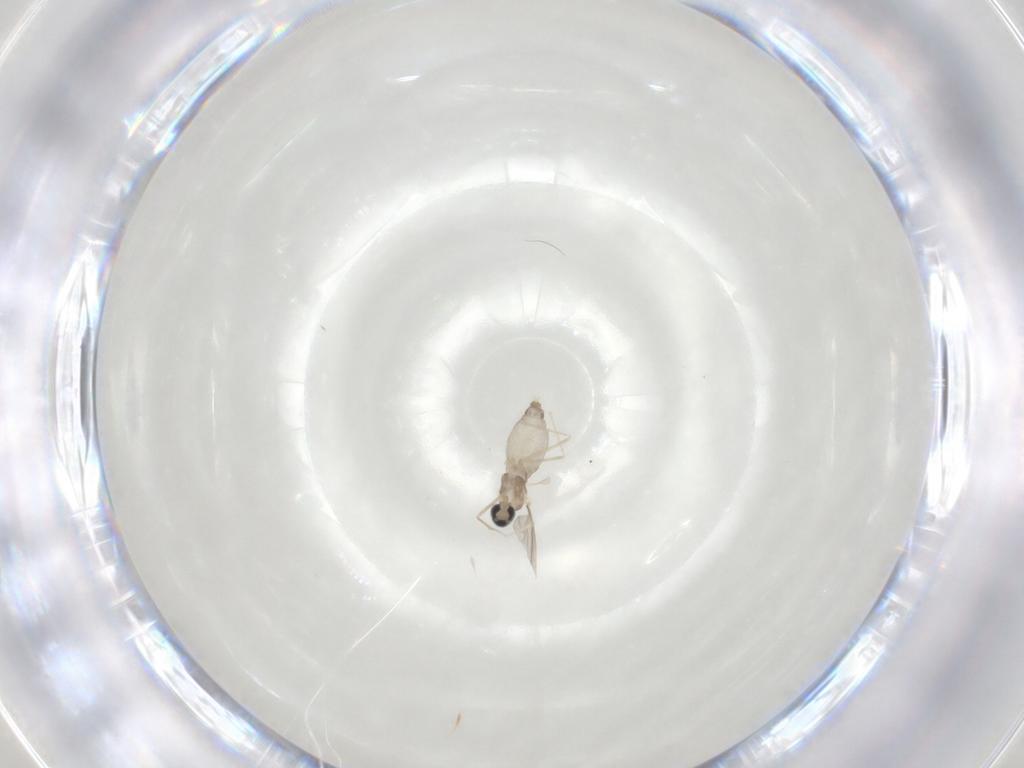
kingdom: Animalia
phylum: Arthropoda
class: Insecta
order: Diptera
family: Cecidomyiidae
